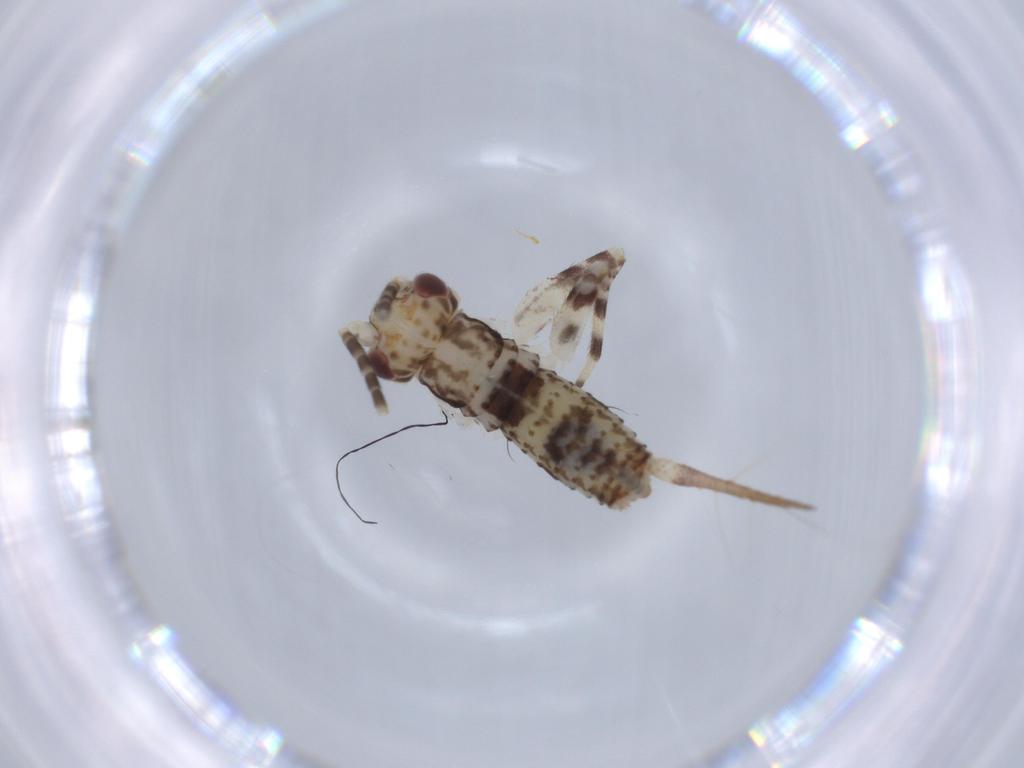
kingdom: Animalia
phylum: Arthropoda
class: Insecta
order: Orthoptera
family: Gryllidae
